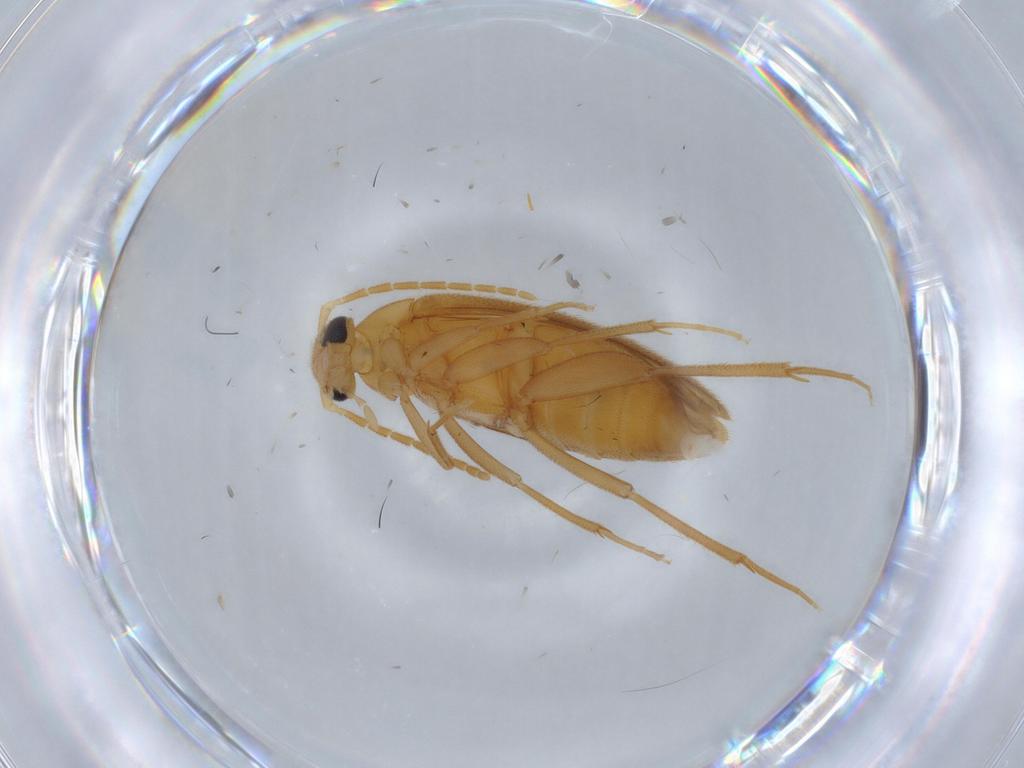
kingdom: Animalia
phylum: Arthropoda
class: Insecta
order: Coleoptera
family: Scraptiidae
